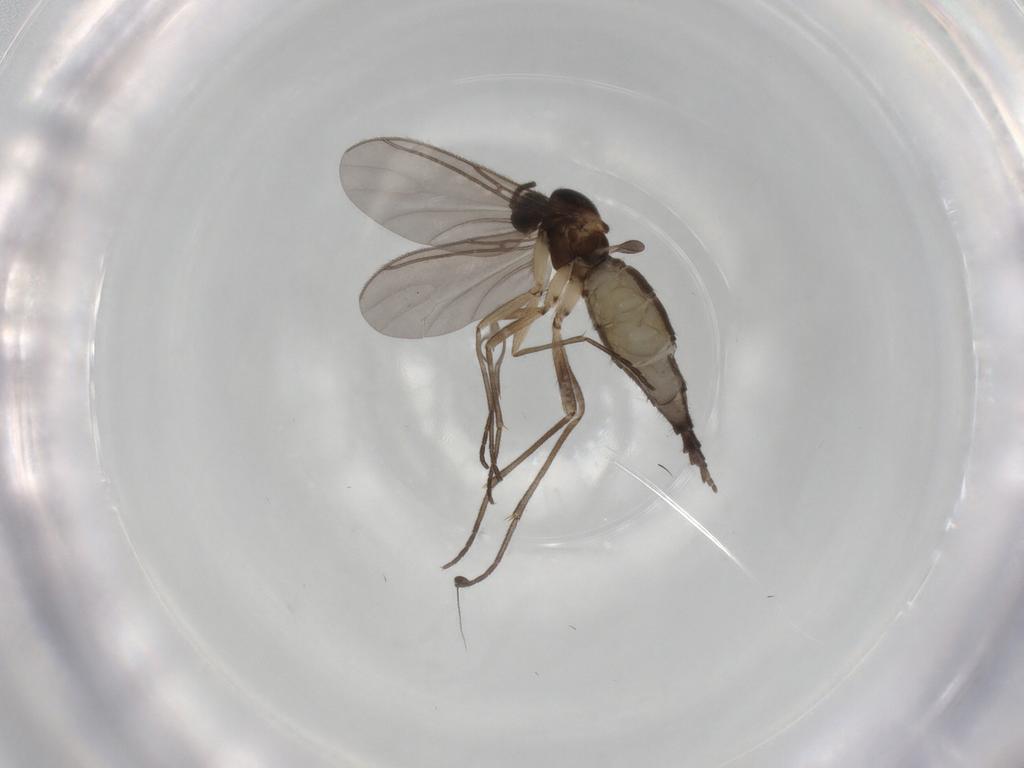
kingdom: Animalia
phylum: Arthropoda
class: Insecta
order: Diptera
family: Sciaridae
